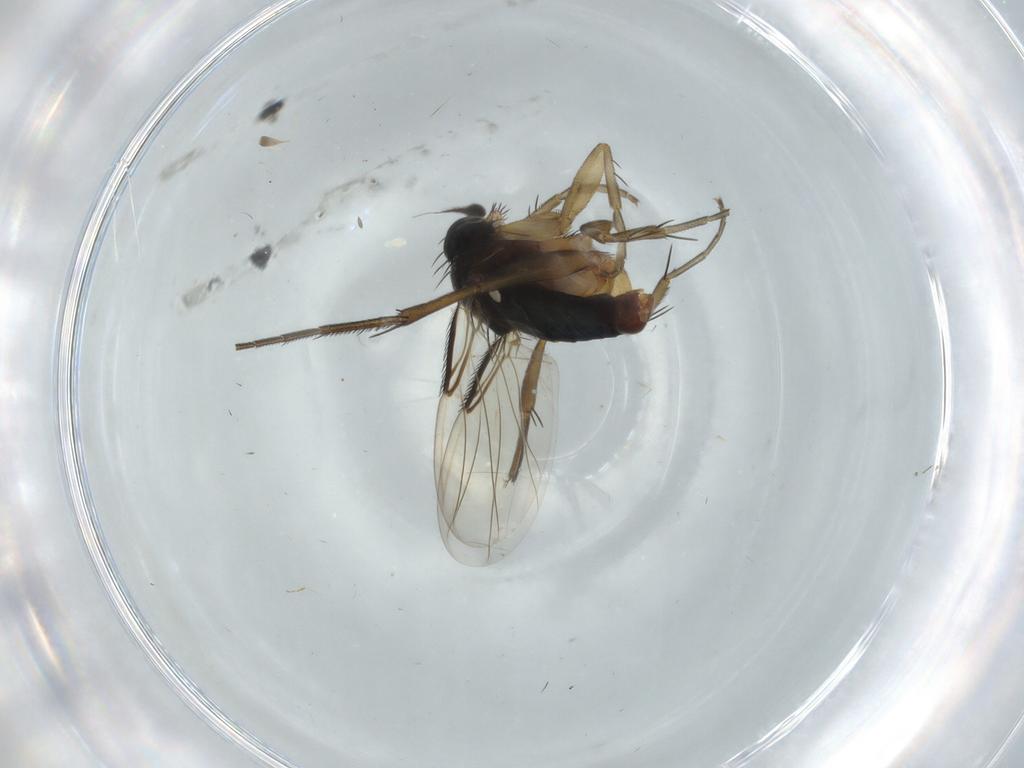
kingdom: Animalia
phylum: Arthropoda
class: Insecta
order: Diptera
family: Phoridae
